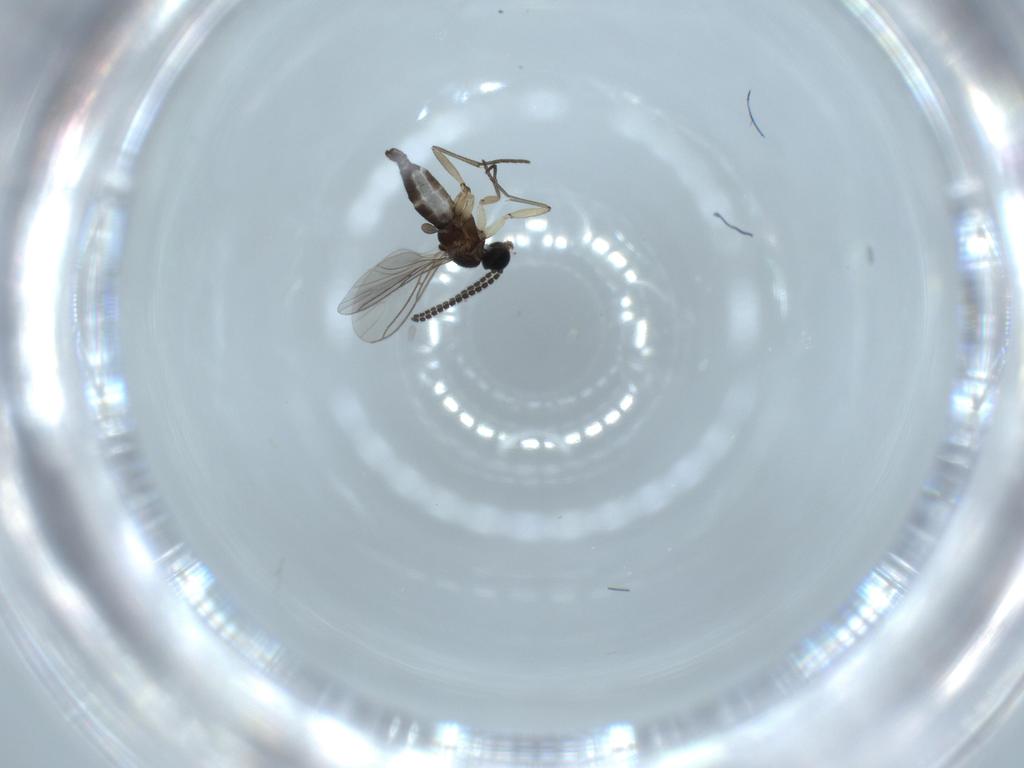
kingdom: Animalia
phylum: Arthropoda
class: Insecta
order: Diptera
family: Sciaridae
